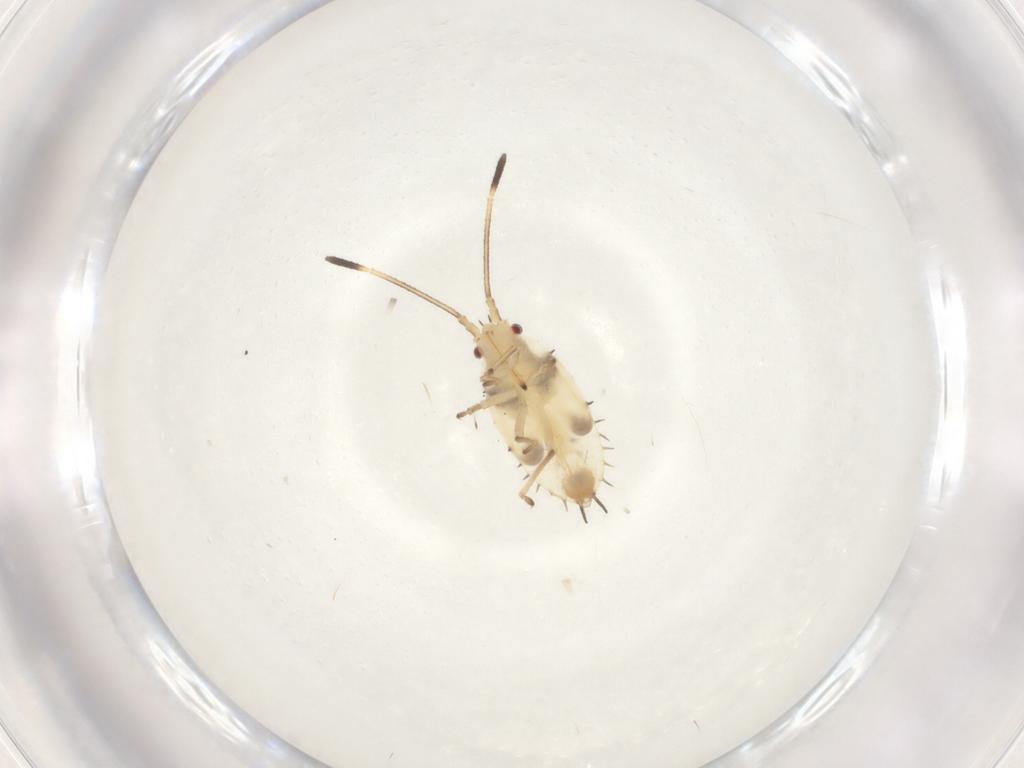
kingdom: Animalia
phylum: Arthropoda
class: Insecta
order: Hemiptera
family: Tingidae
